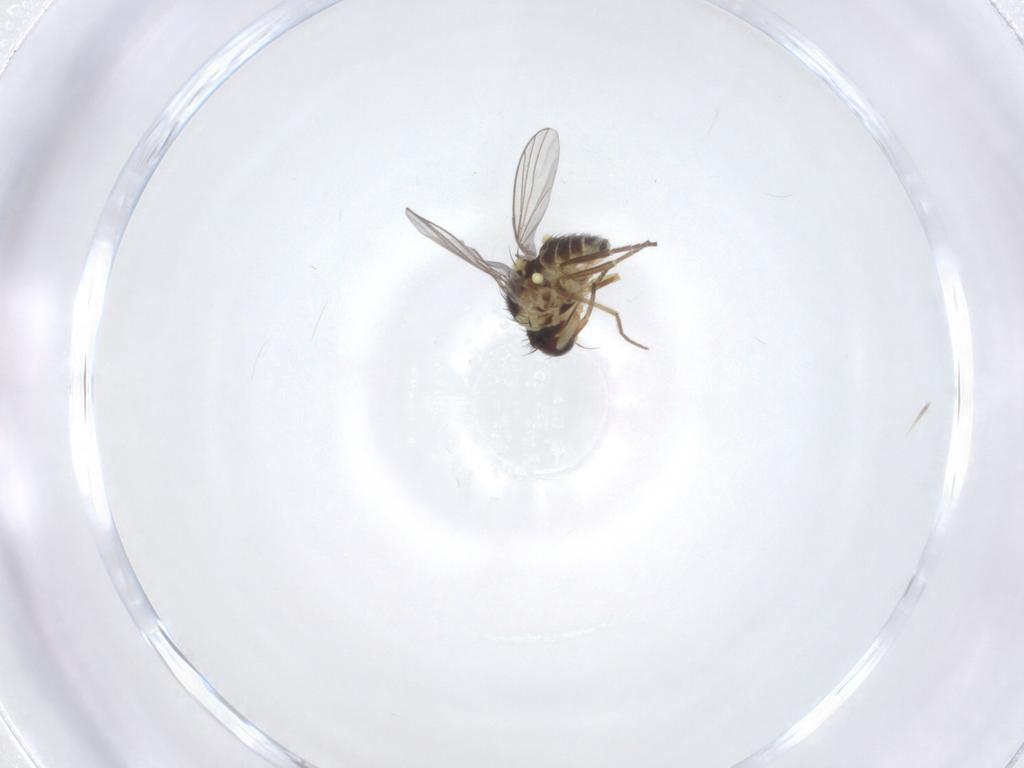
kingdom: Animalia
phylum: Arthropoda
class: Insecta
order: Diptera
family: Agromyzidae
